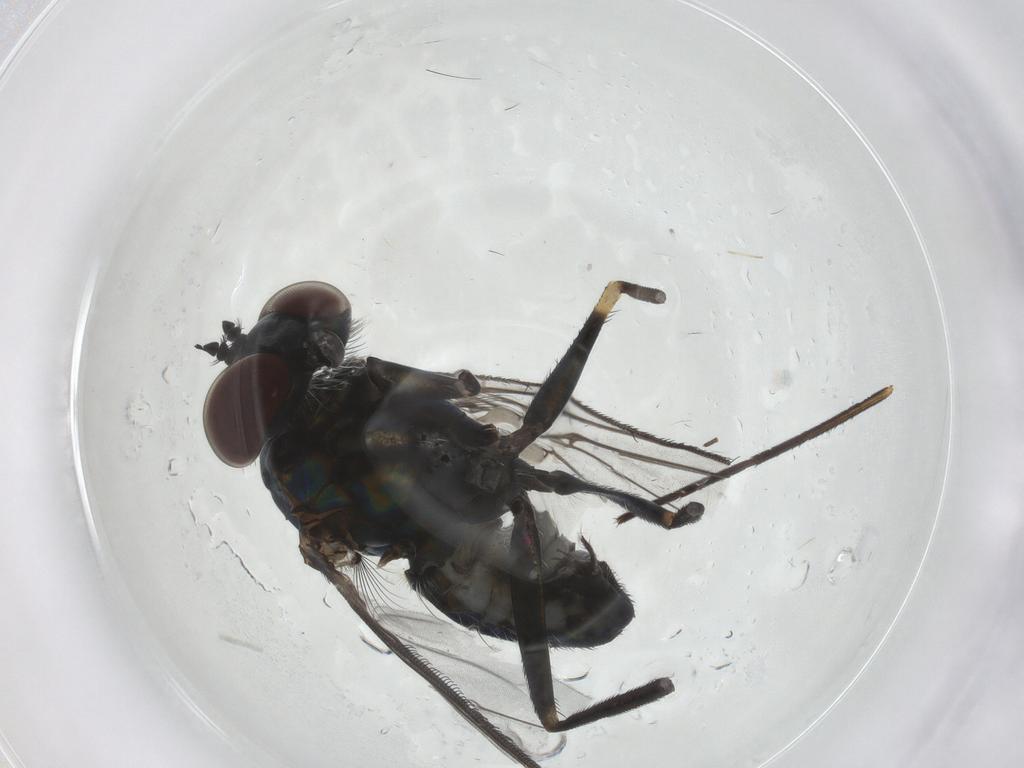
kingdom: Animalia
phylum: Arthropoda
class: Insecta
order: Diptera
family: Dolichopodidae
